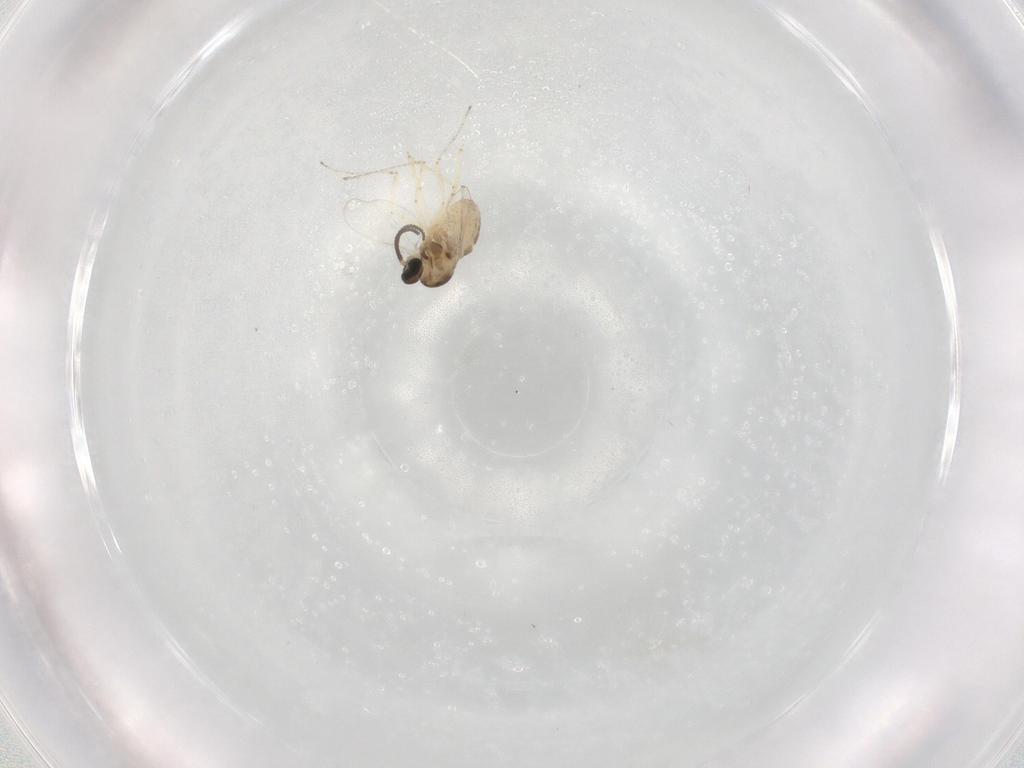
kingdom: Animalia
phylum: Arthropoda
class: Insecta
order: Diptera
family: Cecidomyiidae
